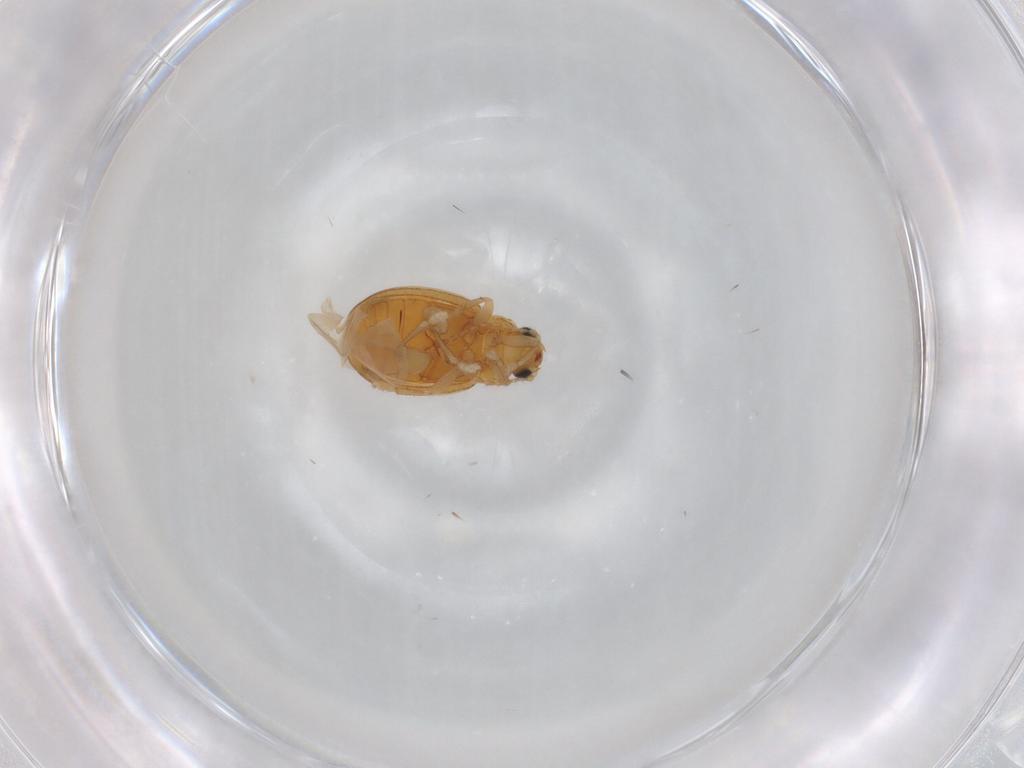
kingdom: Animalia
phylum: Arthropoda
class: Insecta
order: Coleoptera
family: Chrysomelidae
